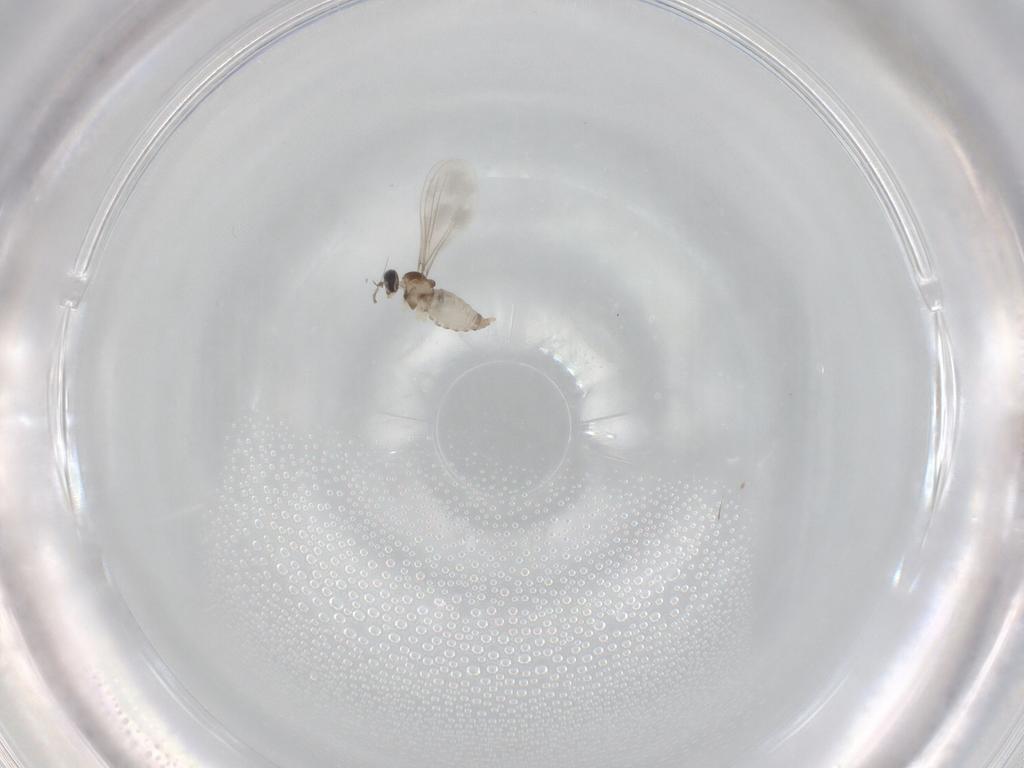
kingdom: Animalia
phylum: Arthropoda
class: Insecta
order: Diptera
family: Cecidomyiidae
